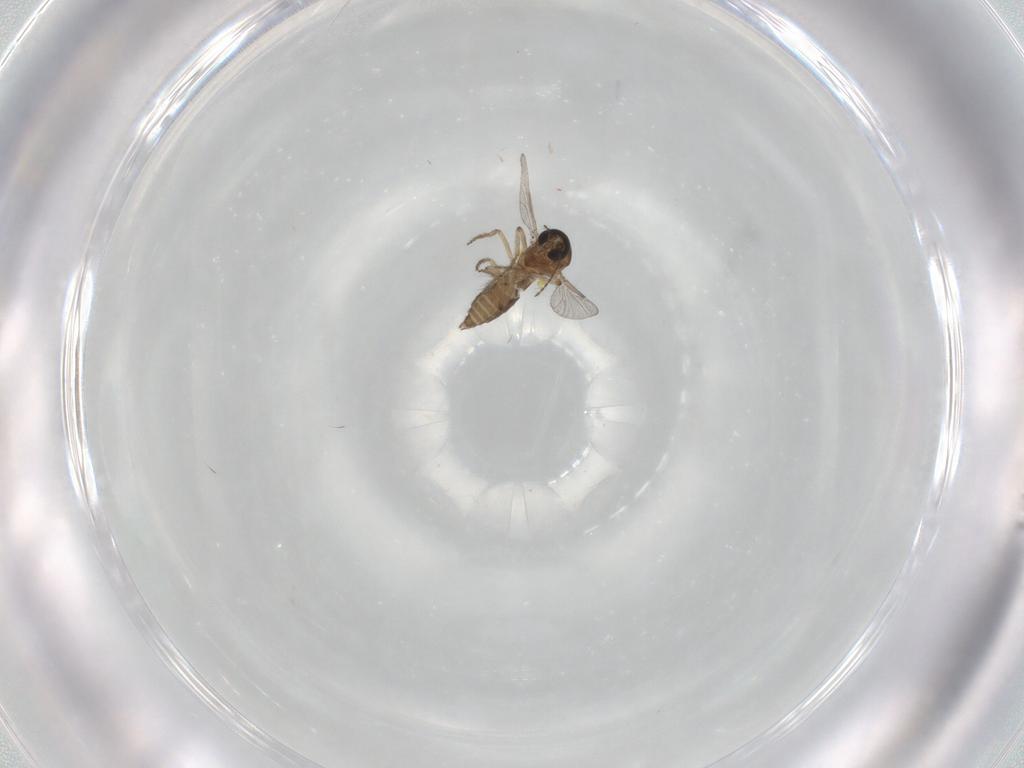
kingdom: Animalia
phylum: Arthropoda
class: Insecta
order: Diptera
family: Ceratopogonidae
